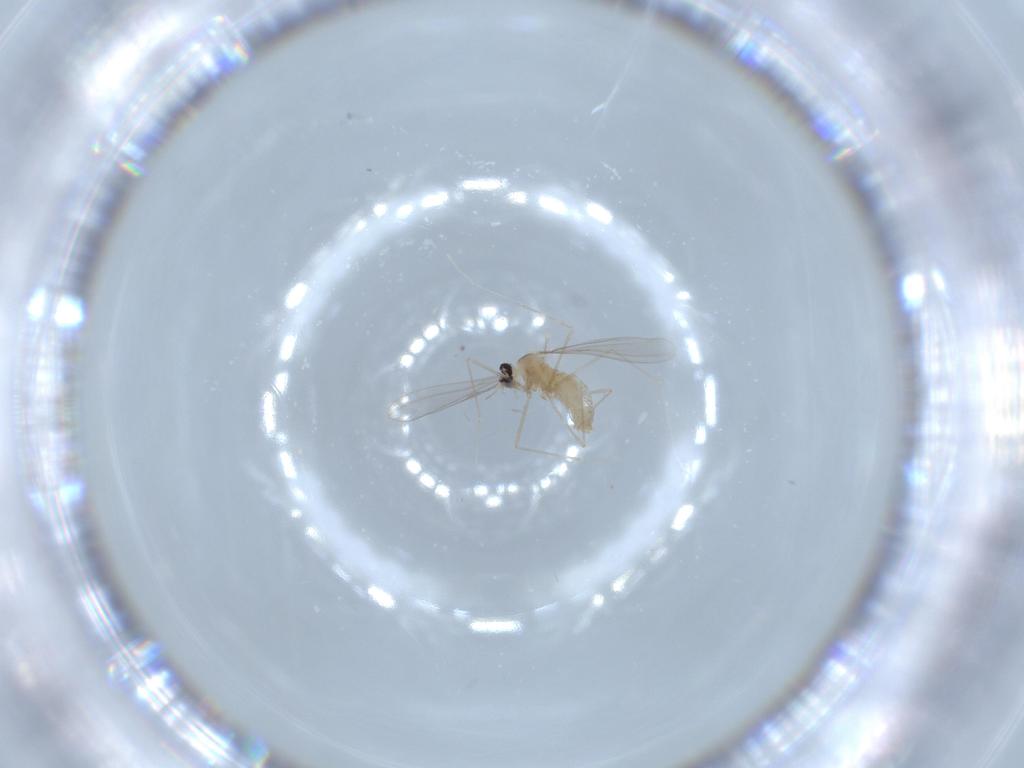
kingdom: Animalia
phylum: Arthropoda
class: Insecta
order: Diptera
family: Cecidomyiidae
